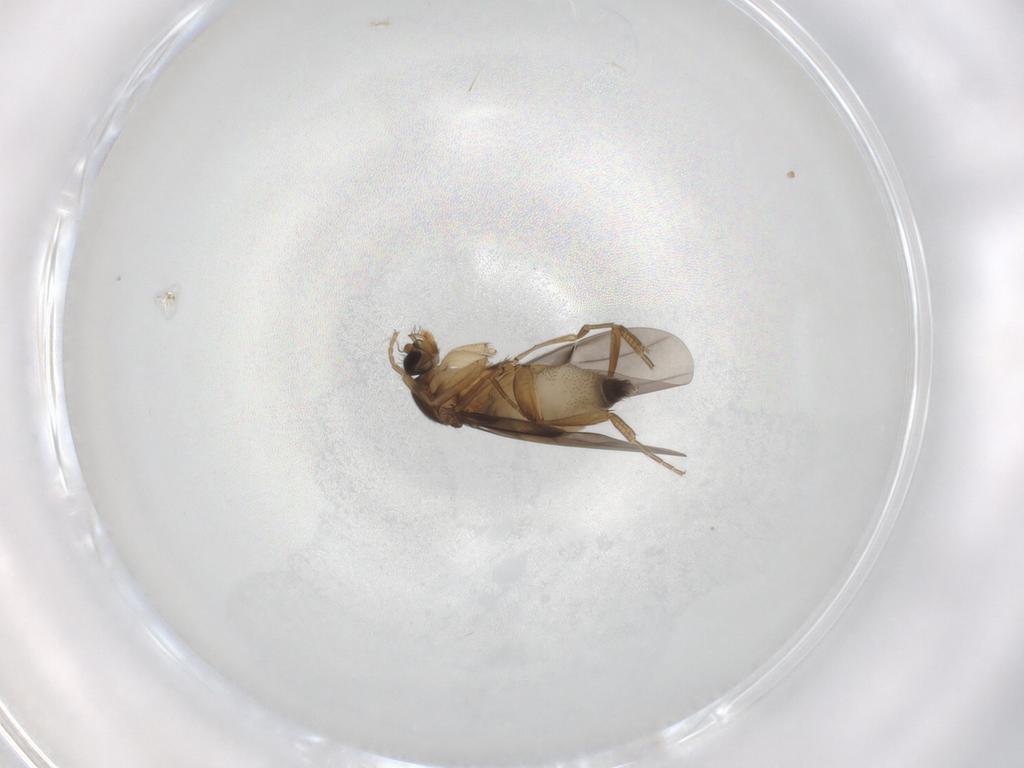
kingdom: Animalia
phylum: Arthropoda
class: Insecta
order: Diptera
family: Phoridae
